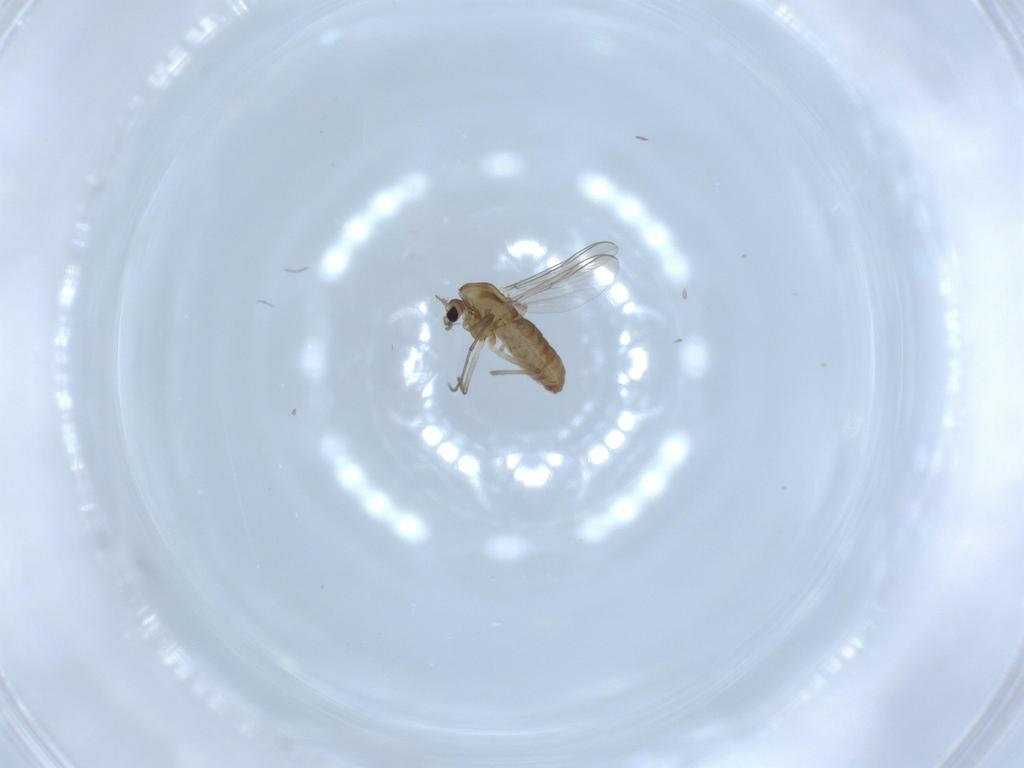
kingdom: Animalia
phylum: Arthropoda
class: Insecta
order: Diptera
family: Chironomidae
